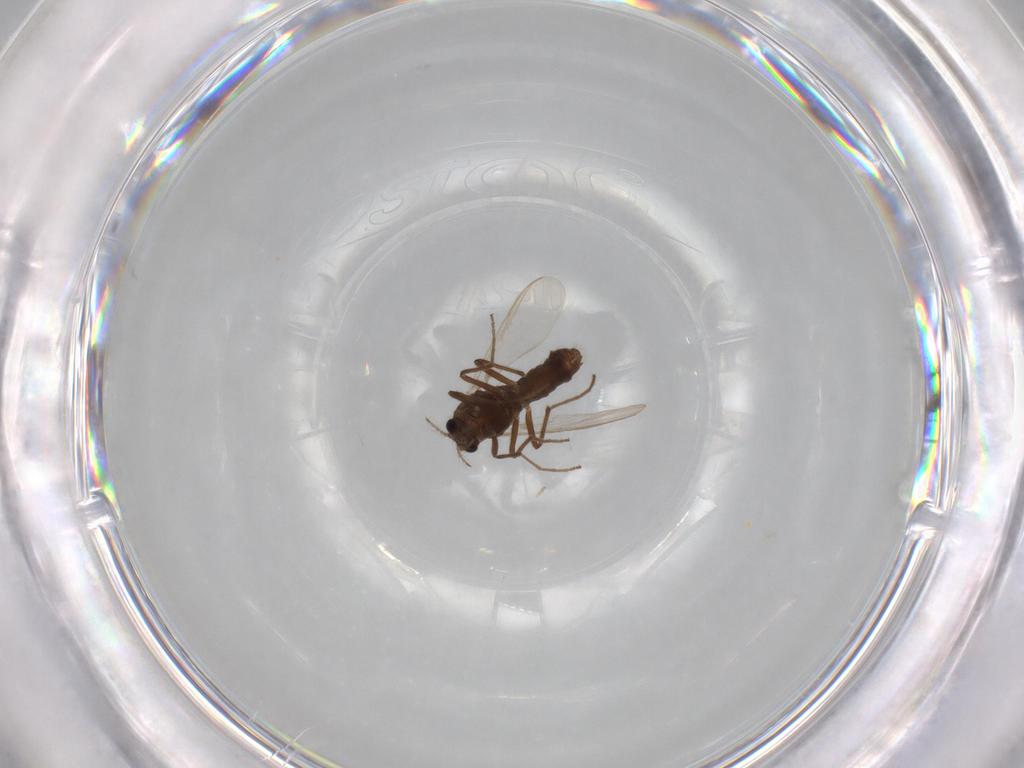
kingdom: Animalia
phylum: Arthropoda
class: Insecta
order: Diptera
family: Chironomidae
